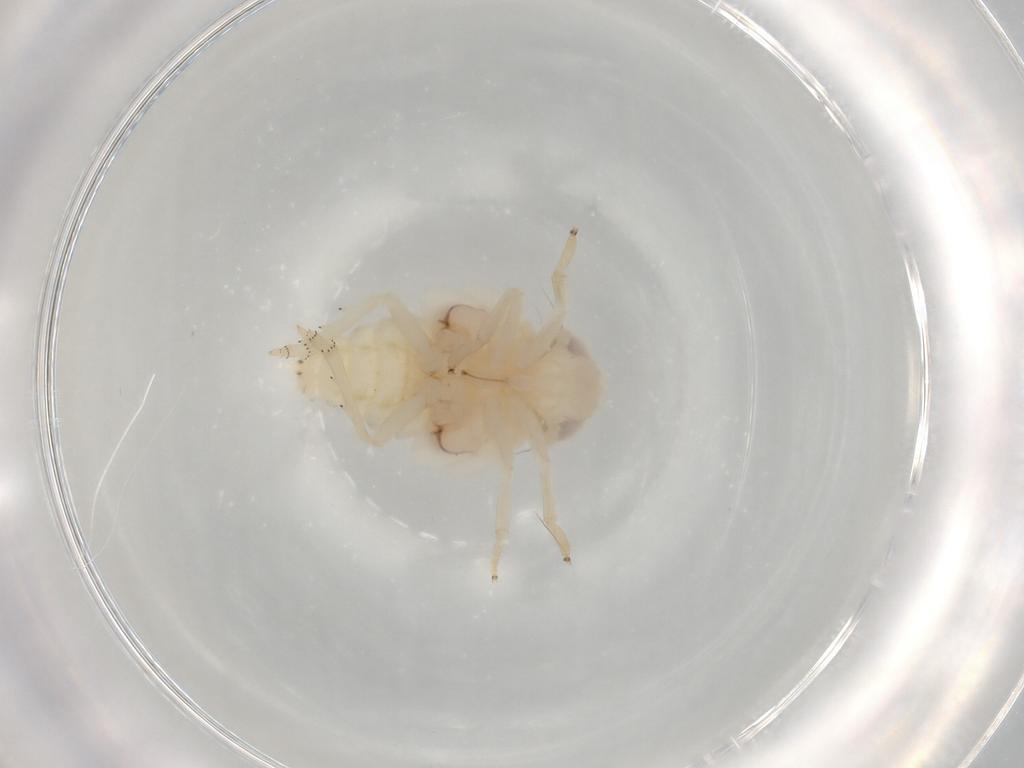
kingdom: Animalia
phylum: Arthropoda
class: Insecta
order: Hemiptera
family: Nogodinidae
